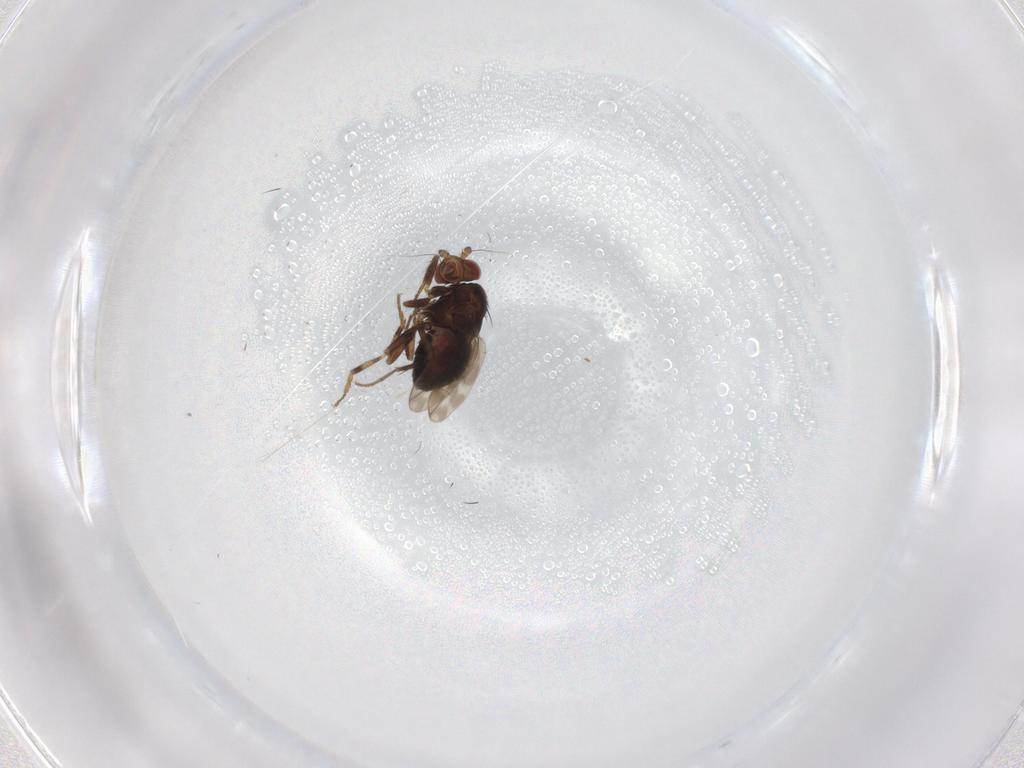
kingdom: Animalia
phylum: Arthropoda
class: Insecta
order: Diptera
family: Sphaeroceridae
